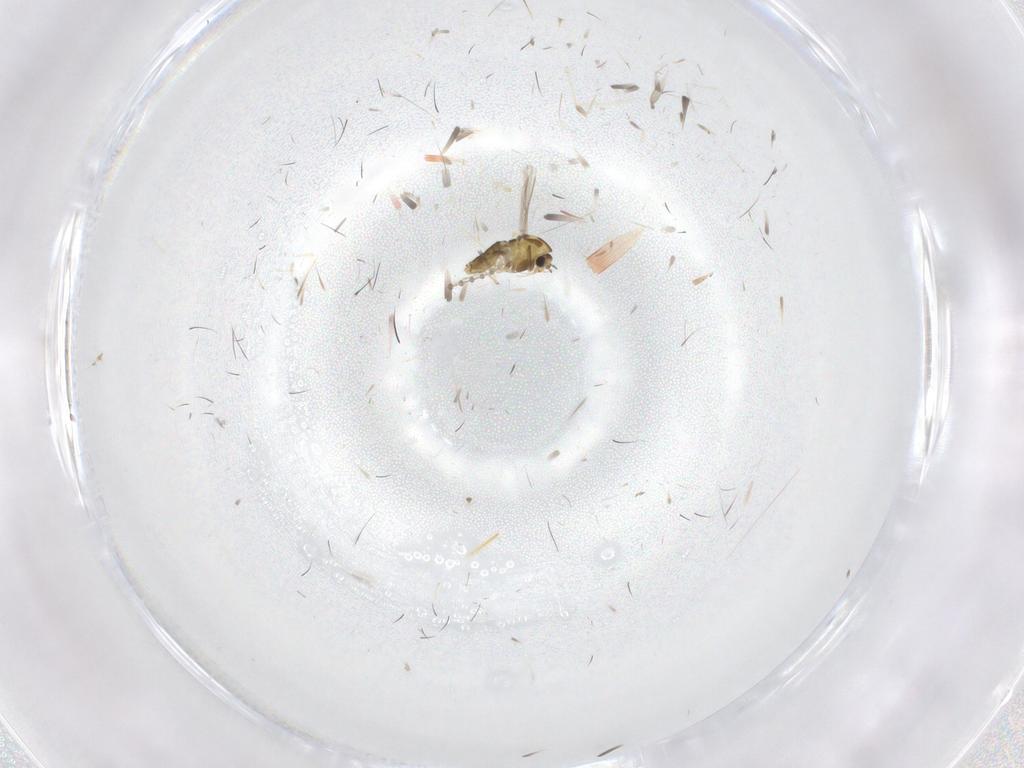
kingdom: Animalia
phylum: Arthropoda
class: Insecta
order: Diptera
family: Chironomidae
